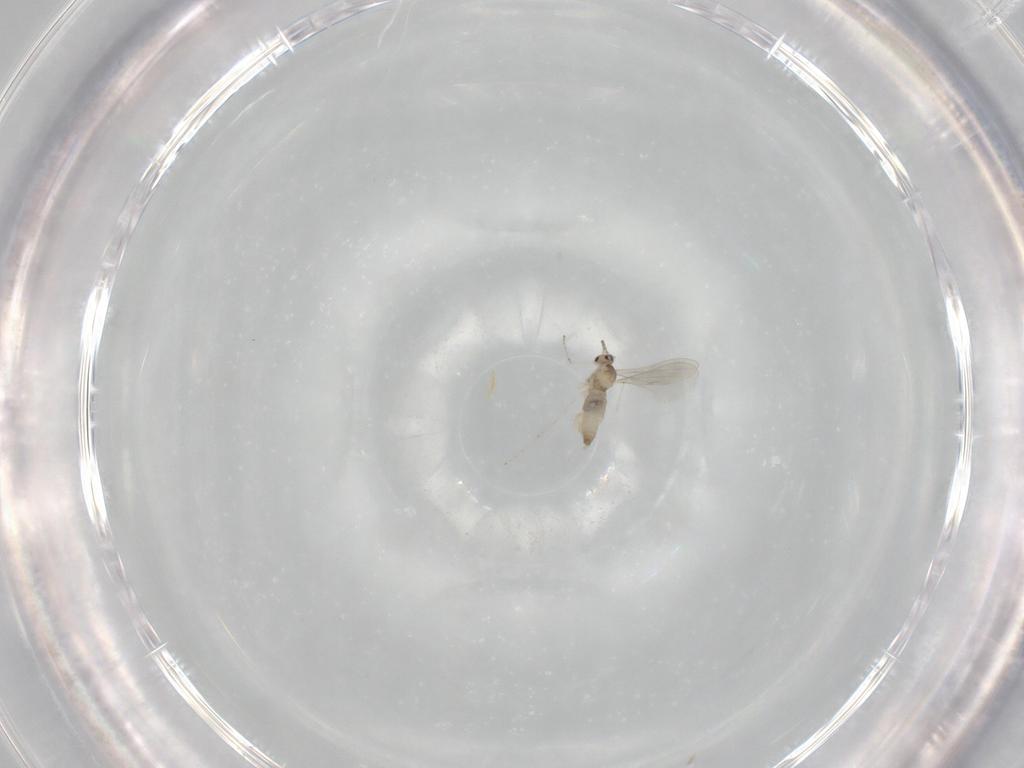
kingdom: Animalia
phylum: Arthropoda
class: Insecta
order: Diptera
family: Cecidomyiidae
